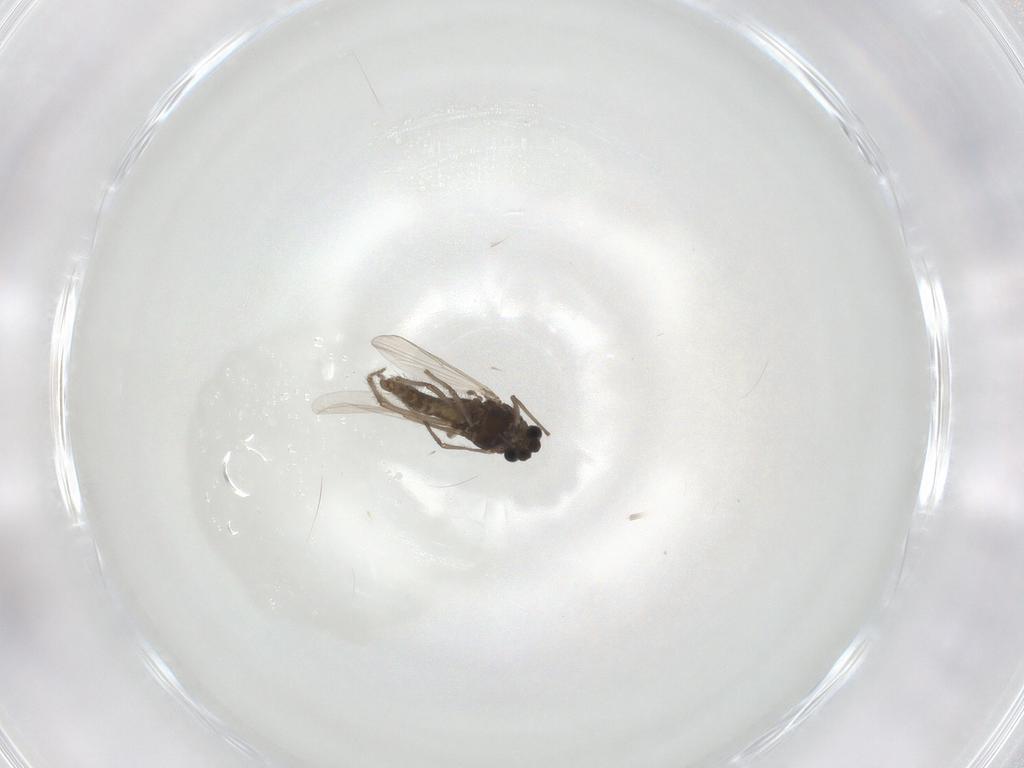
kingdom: Animalia
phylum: Arthropoda
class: Insecta
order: Diptera
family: Chironomidae
